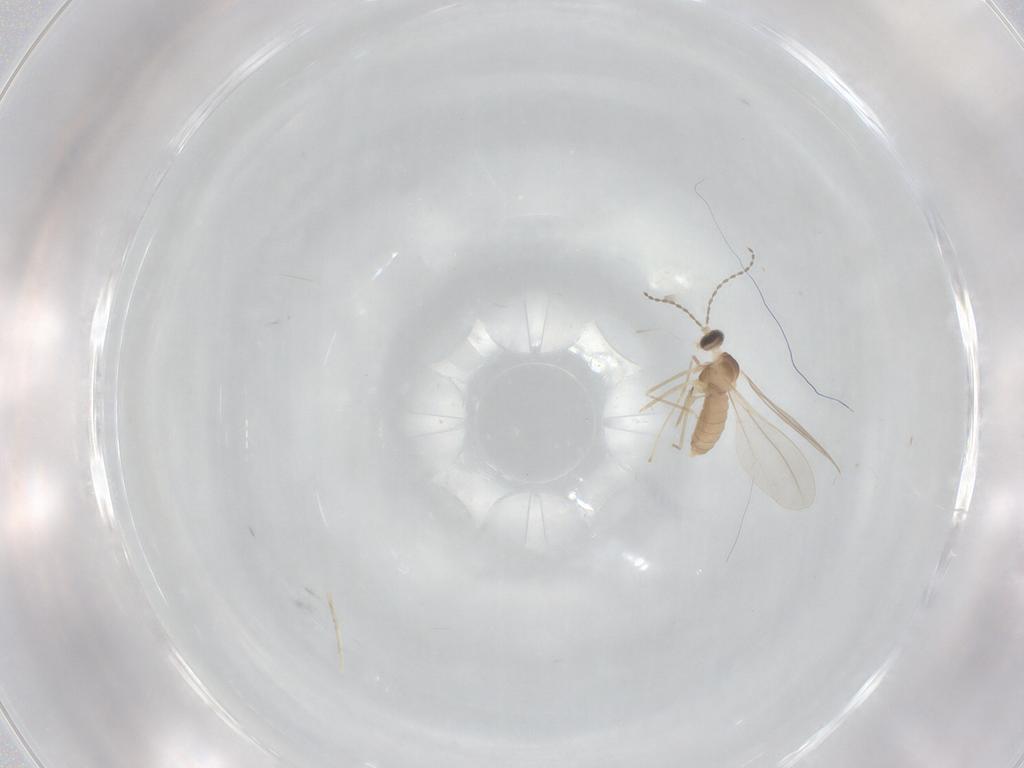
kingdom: Animalia
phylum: Arthropoda
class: Insecta
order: Diptera
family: Cecidomyiidae
